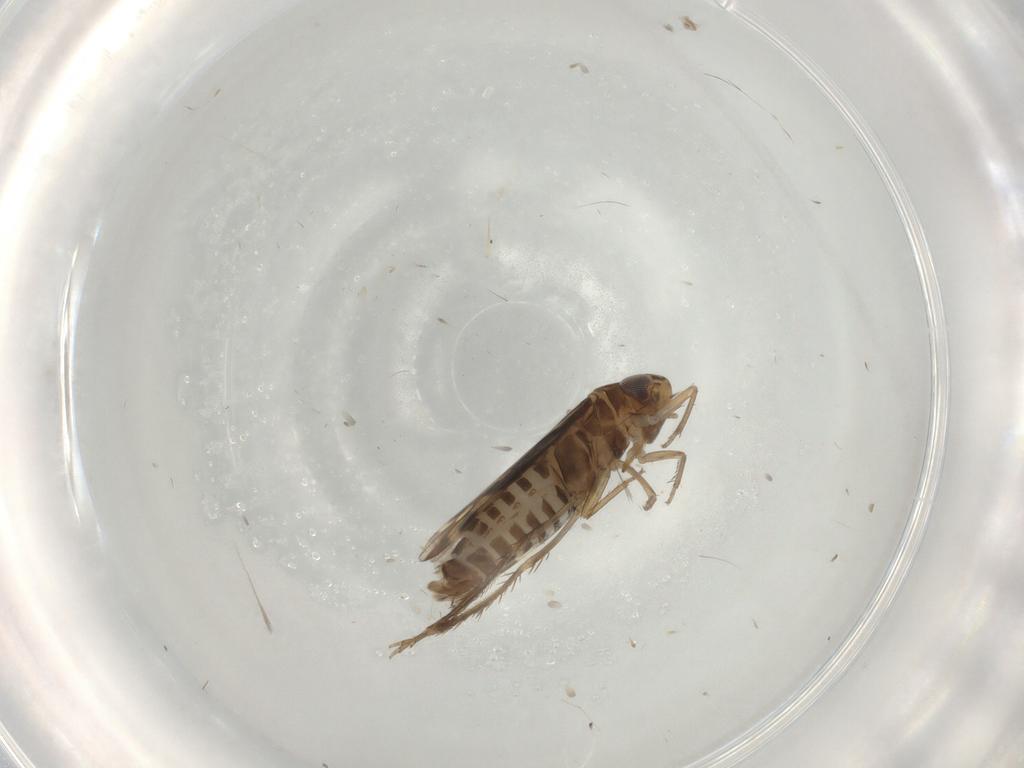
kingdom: Animalia
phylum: Arthropoda
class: Insecta
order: Hemiptera
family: Cicadellidae
